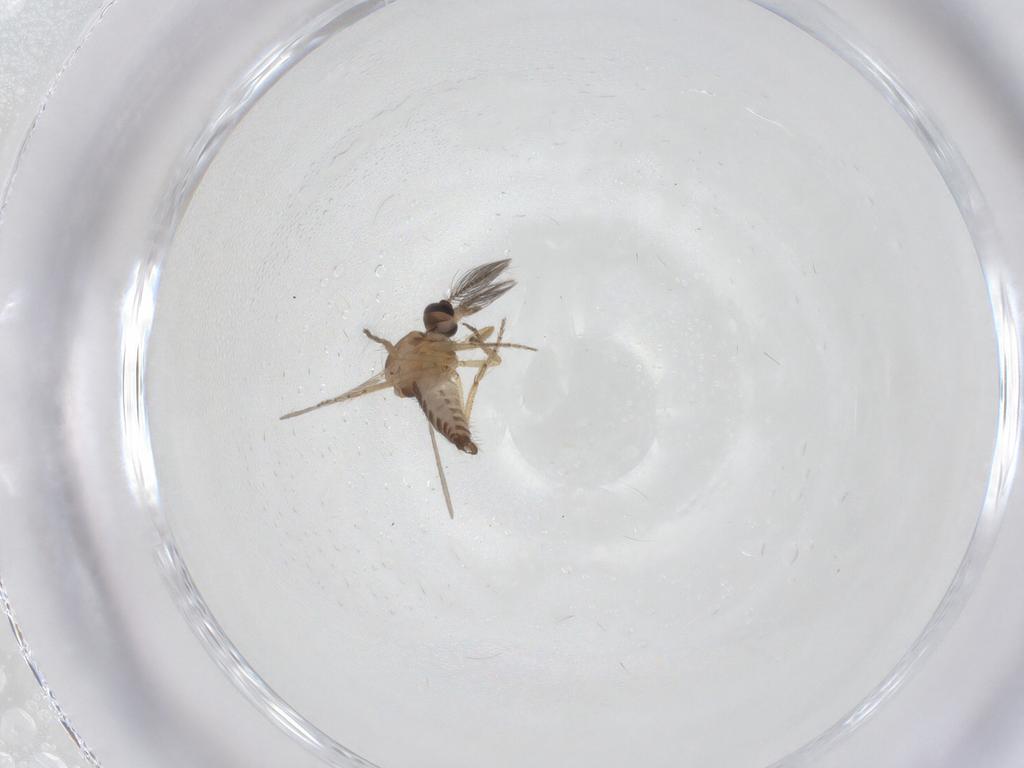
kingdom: Animalia
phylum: Arthropoda
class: Insecta
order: Diptera
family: Ceratopogonidae
